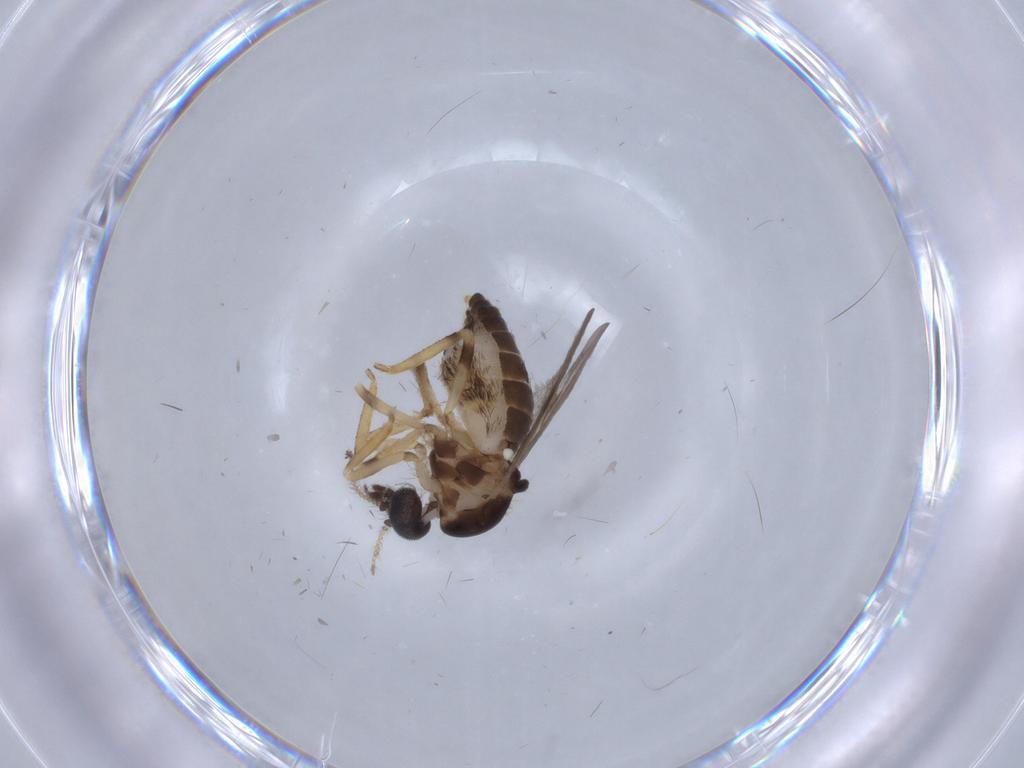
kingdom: Animalia
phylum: Arthropoda
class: Insecta
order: Diptera
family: Ceratopogonidae
